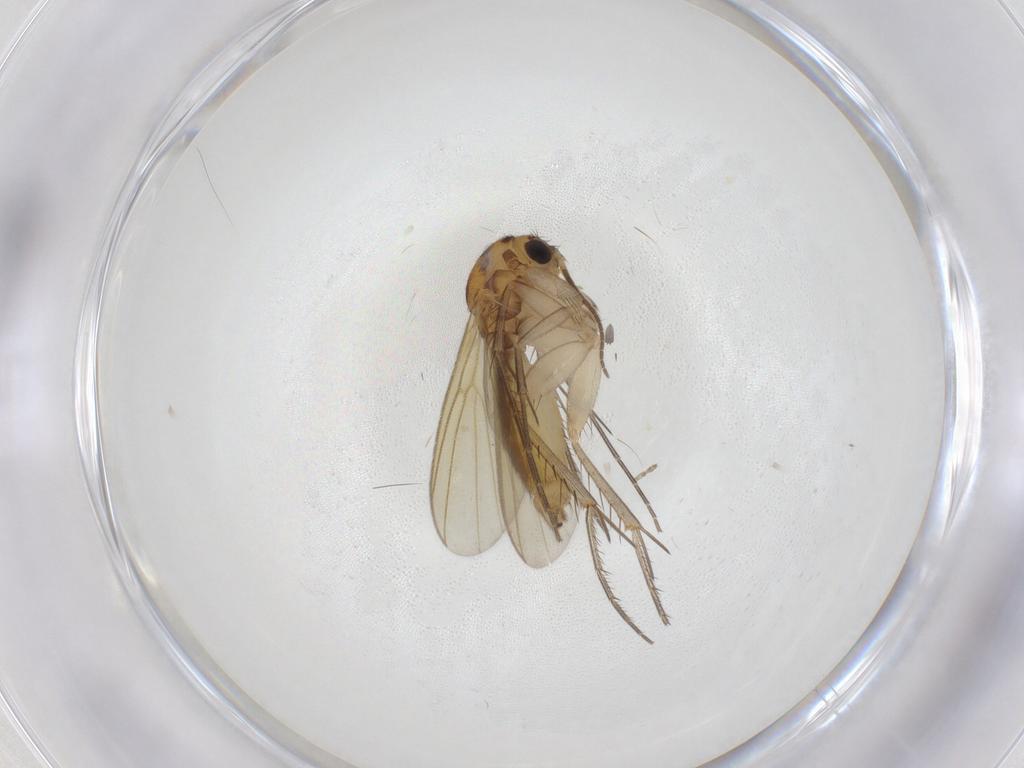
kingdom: Animalia
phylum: Arthropoda
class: Insecta
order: Diptera
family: Mycetophilidae
